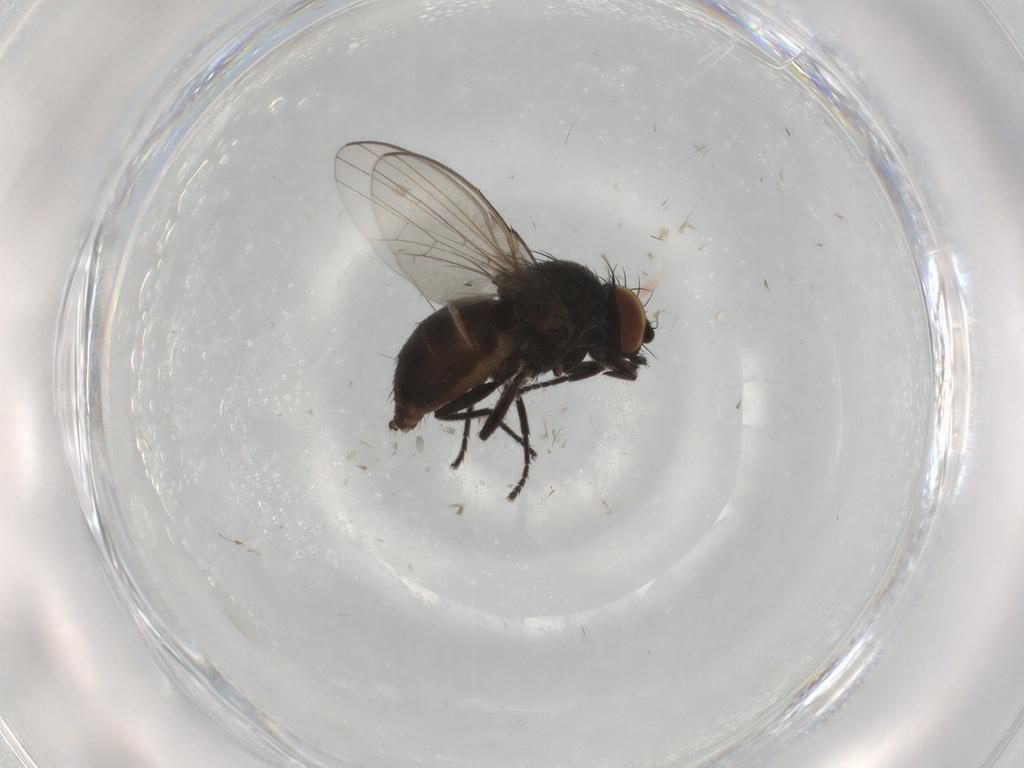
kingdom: Animalia
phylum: Arthropoda
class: Insecta
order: Diptera
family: Milichiidae
